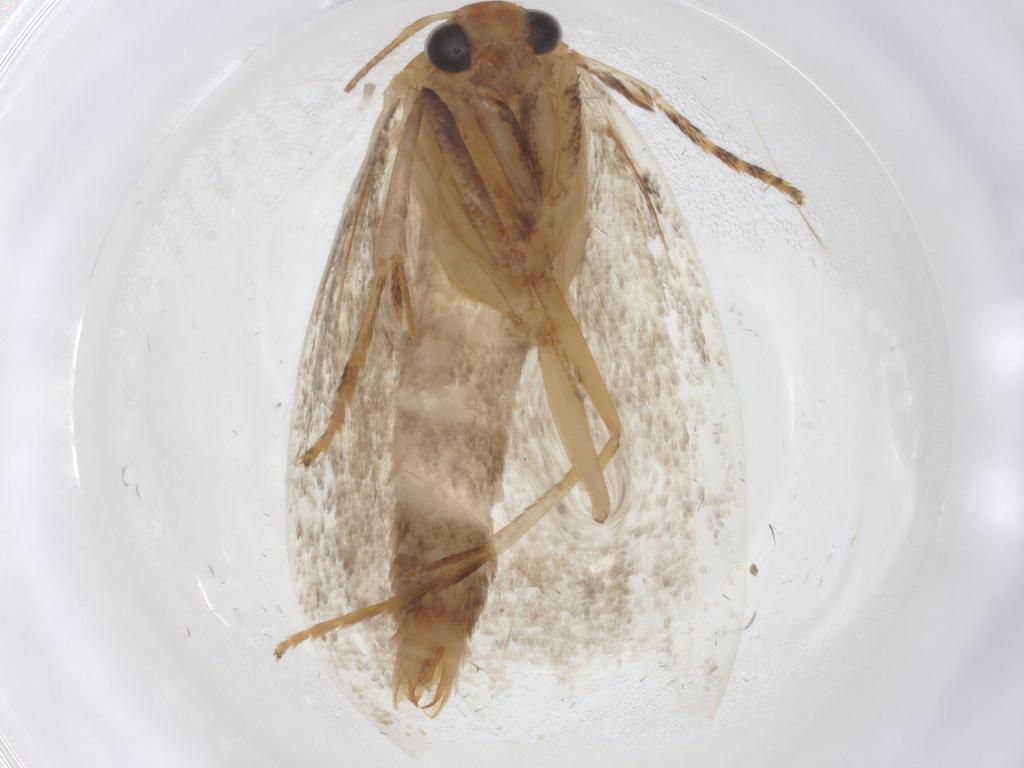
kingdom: Animalia
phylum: Arthropoda
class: Insecta
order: Lepidoptera
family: Oecophoridae
